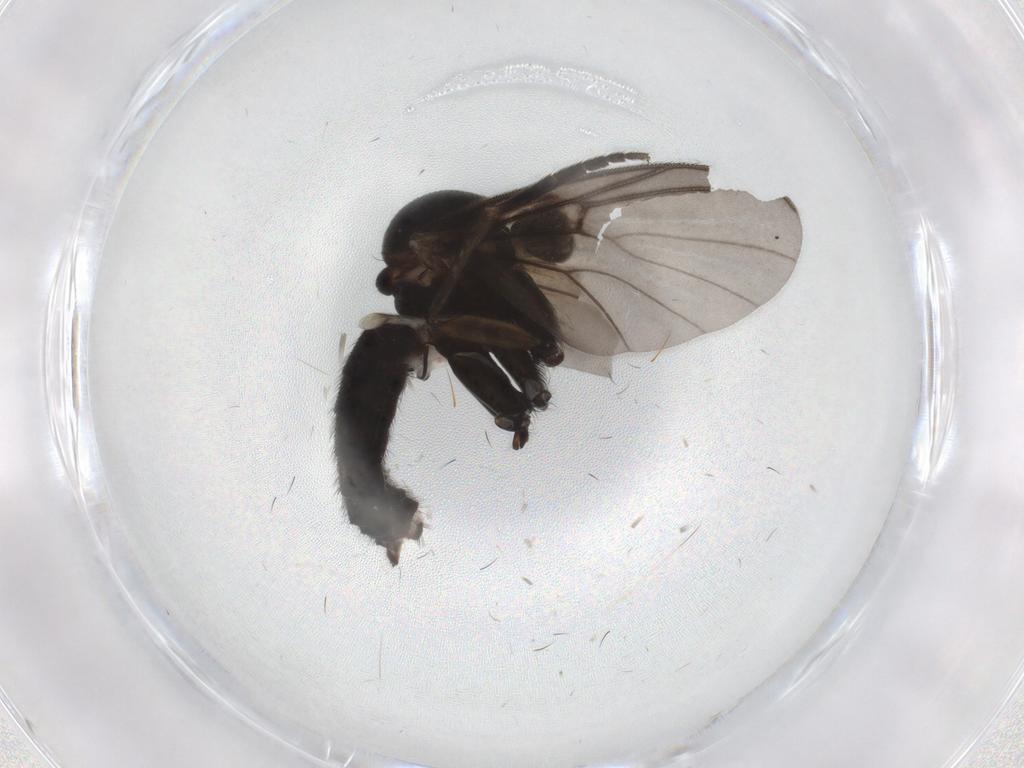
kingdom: Animalia
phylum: Arthropoda
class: Insecta
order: Diptera
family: Mycetophilidae
